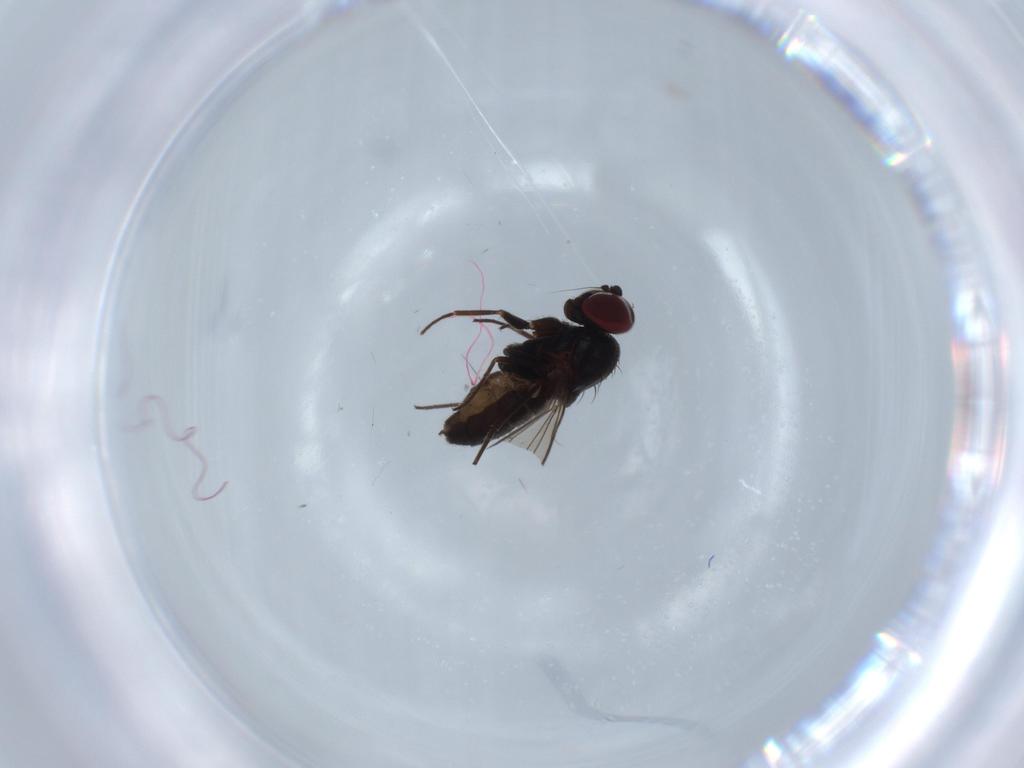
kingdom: Animalia
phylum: Arthropoda
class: Insecta
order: Diptera
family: Dolichopodidae
